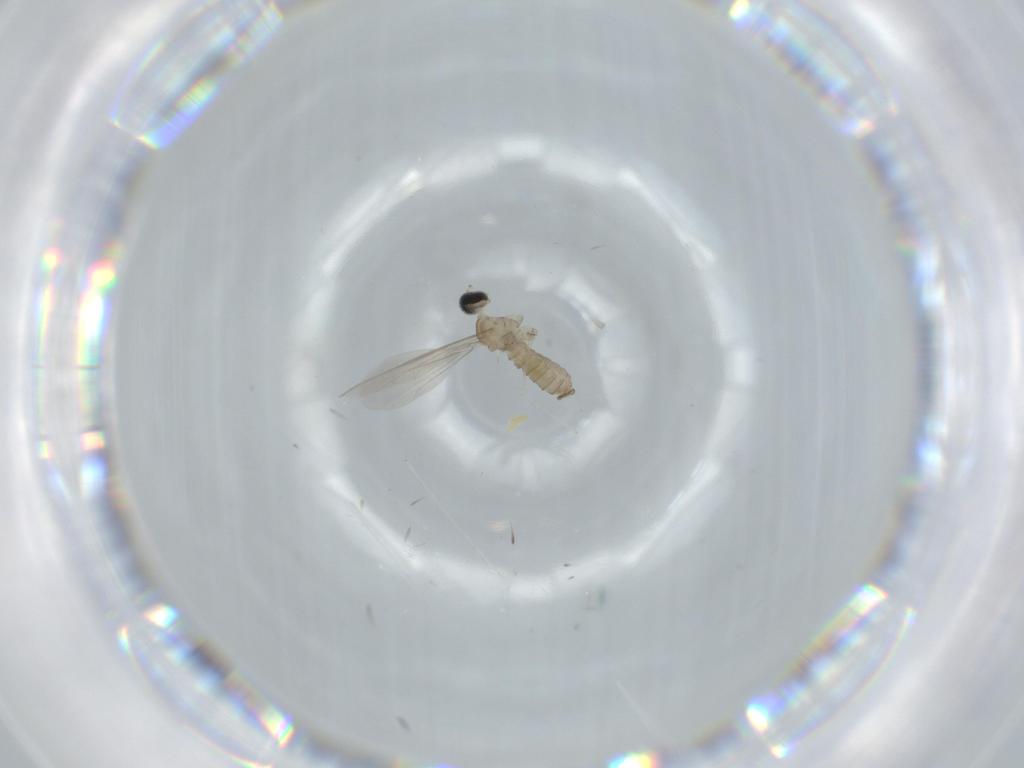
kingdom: Animalia
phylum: Arthropoda
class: Insecta
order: Diptera
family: Cecidomyiidae
